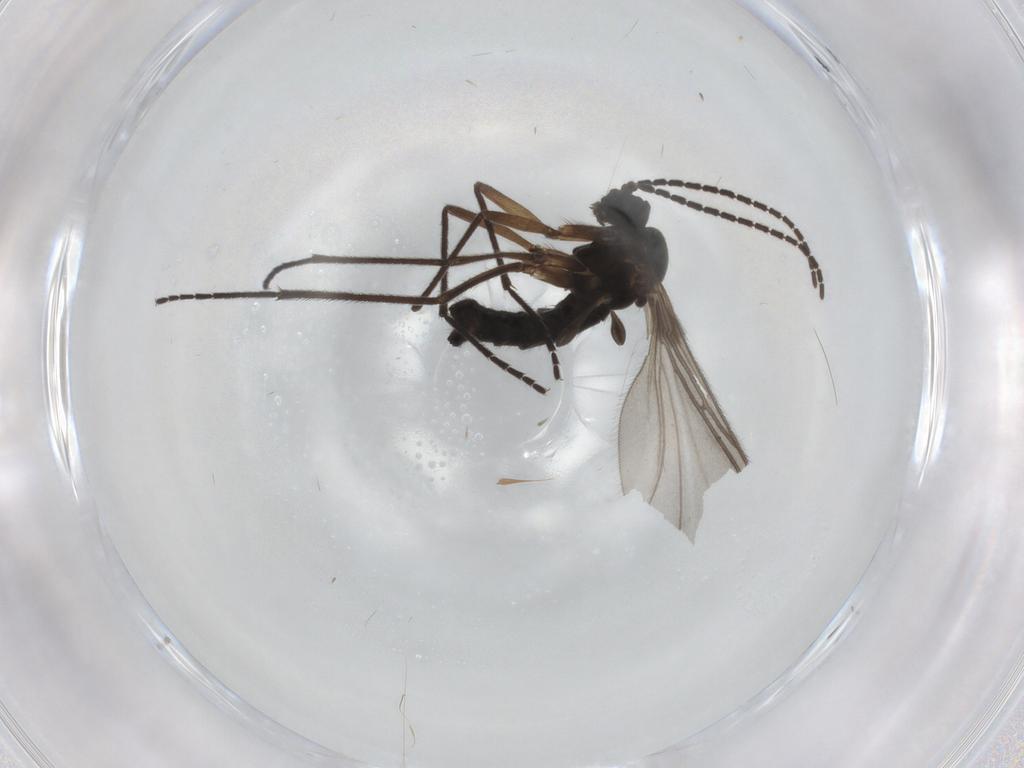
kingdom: Animalia
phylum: Arthropoda
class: Insecta
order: Diptera
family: Sciaridae
